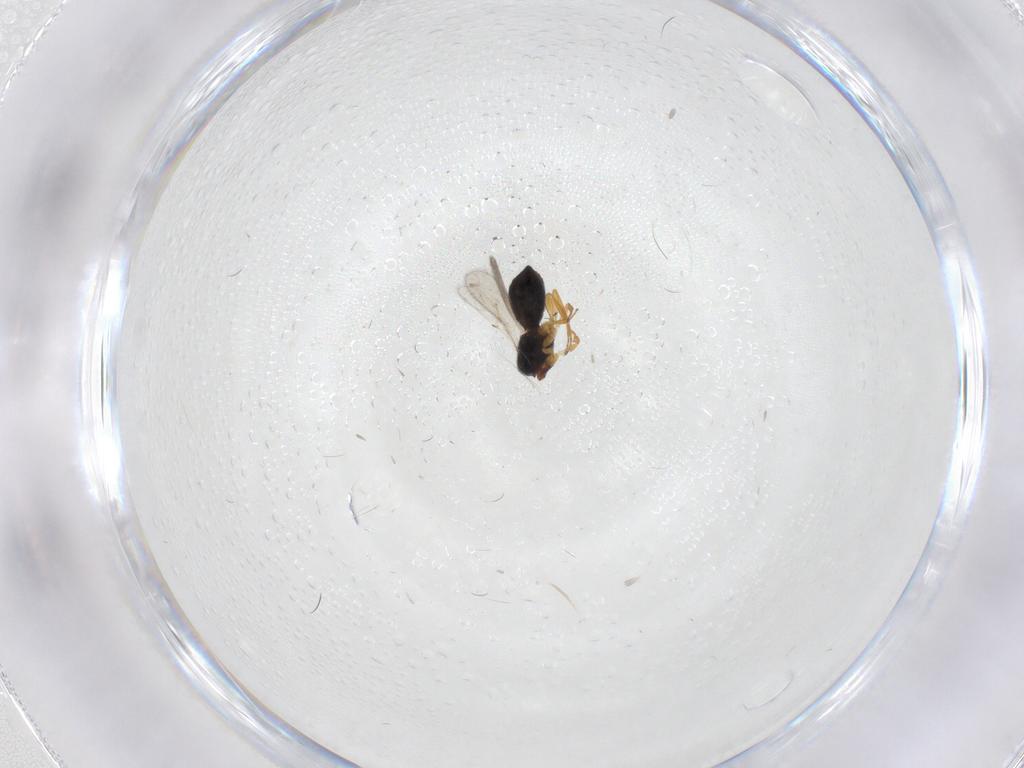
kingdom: Animalia
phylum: Arthropoda
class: Insecta
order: Hymenoptera
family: Scelionidae
